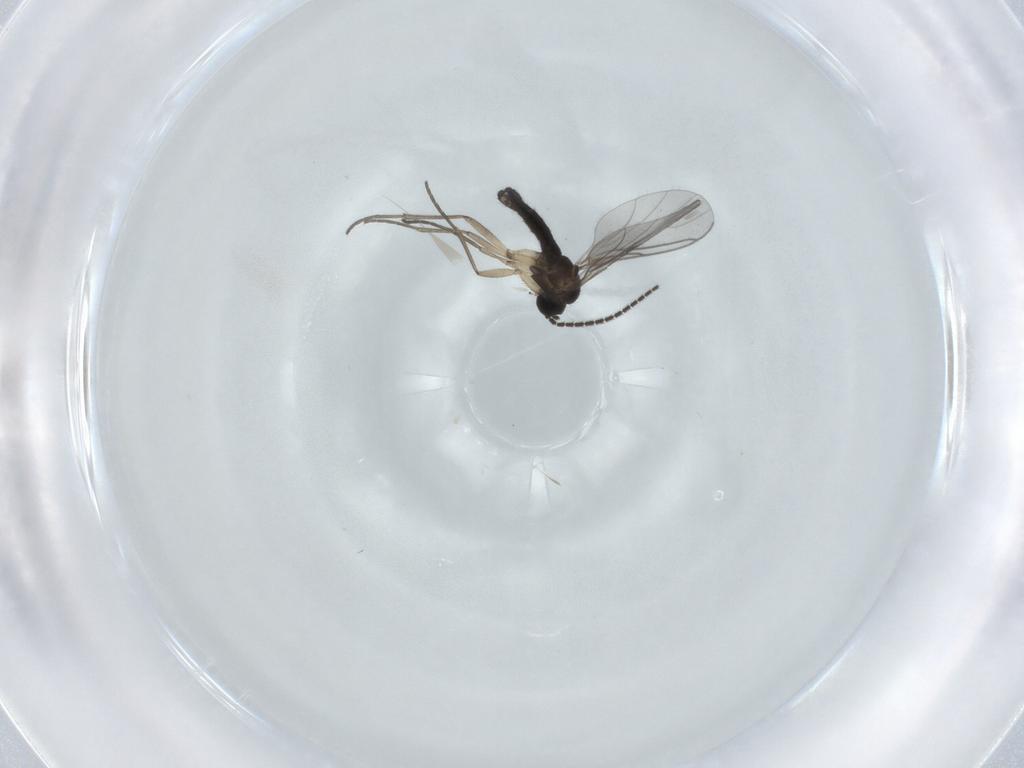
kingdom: Animalia
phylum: Arthropoda
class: Insecta
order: Diptera
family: Sciaridae
